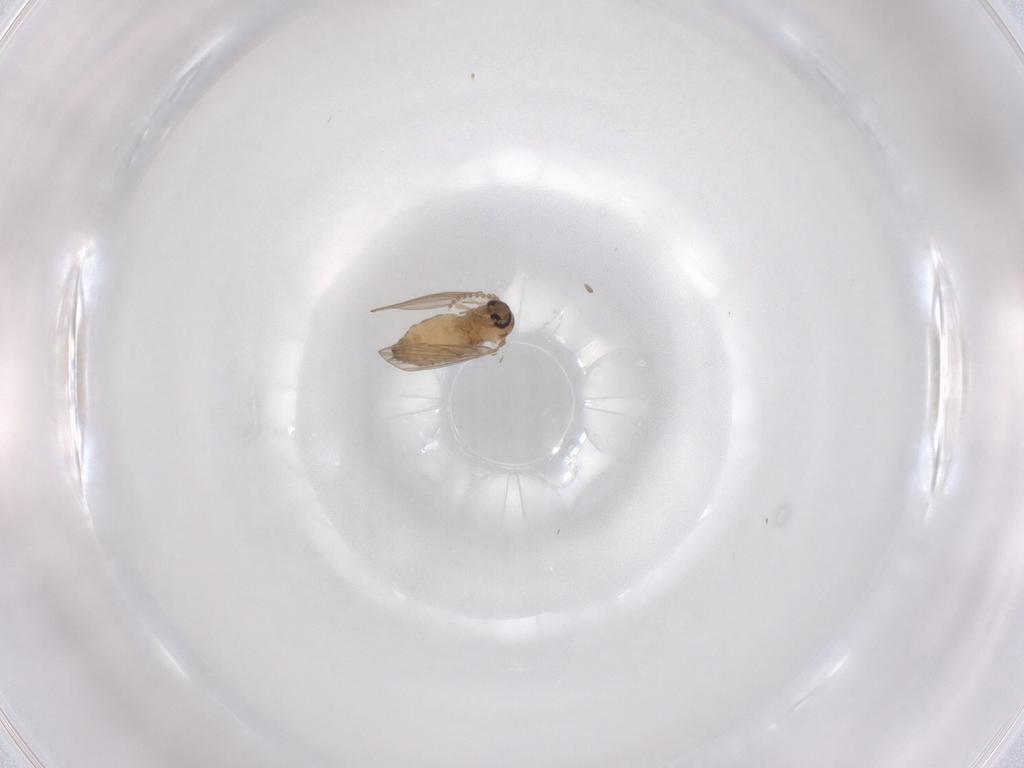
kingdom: Animalia
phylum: Arthropoda
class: Insecta
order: Diptera
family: Psychodidae
